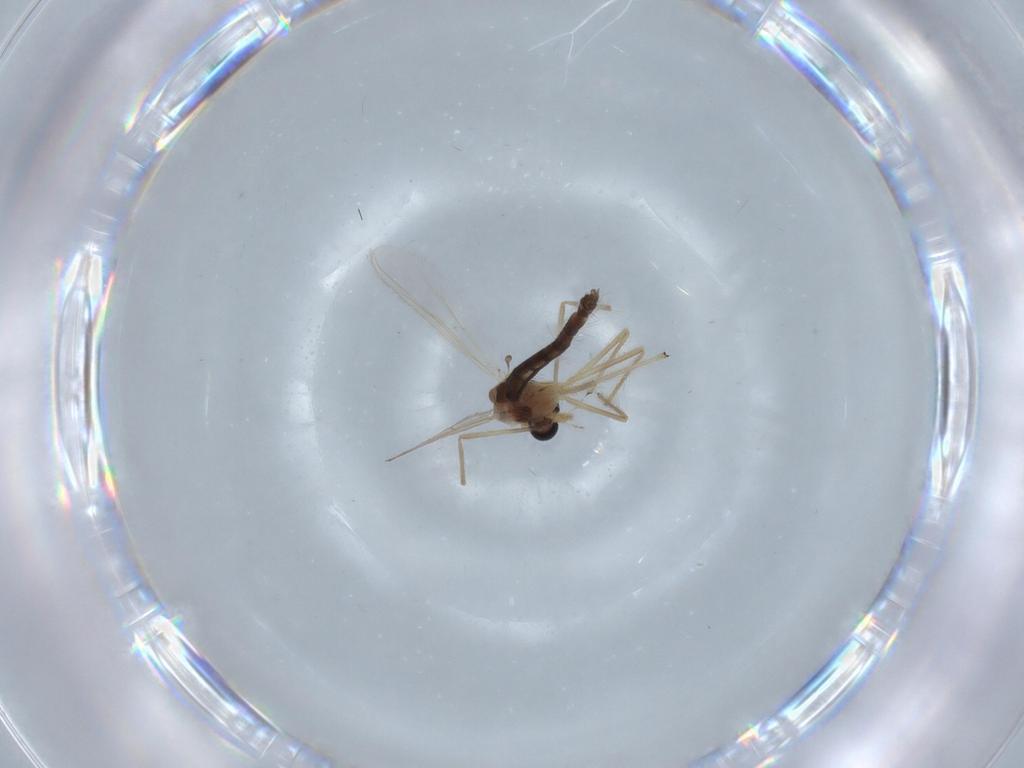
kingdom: Animalia
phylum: Arthropoda
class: Insecta
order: Diptera
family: Chironomidae
